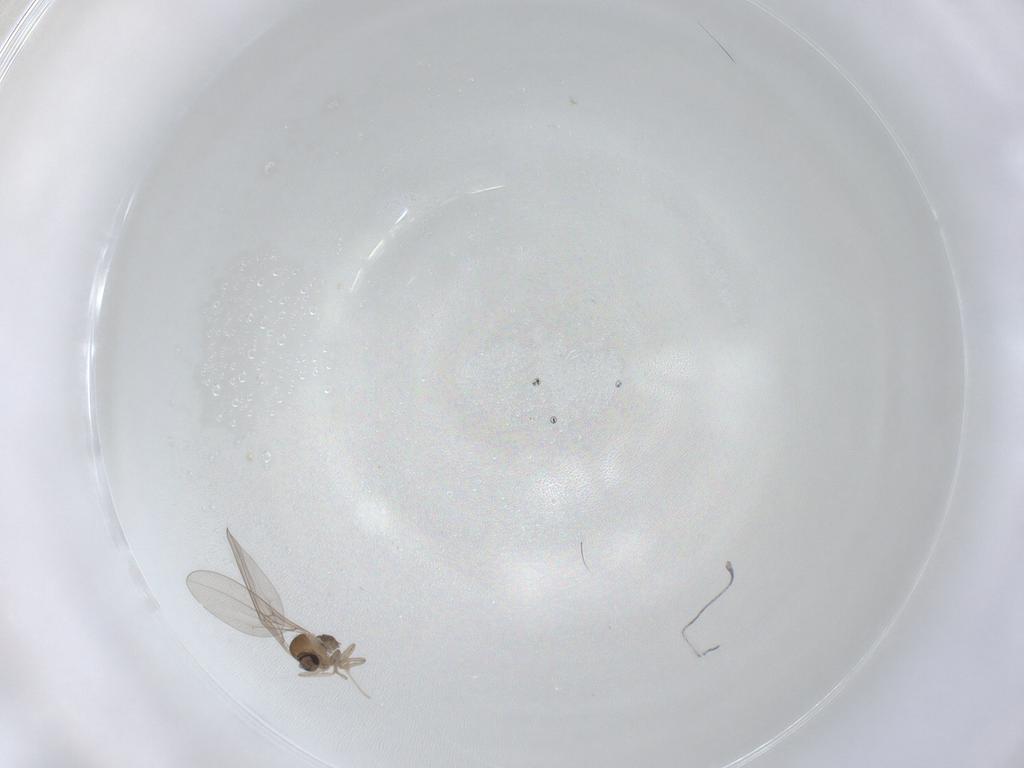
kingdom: Animalia
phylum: Arthropoda
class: Insecta
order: Diptera
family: Cecidomyiidae
